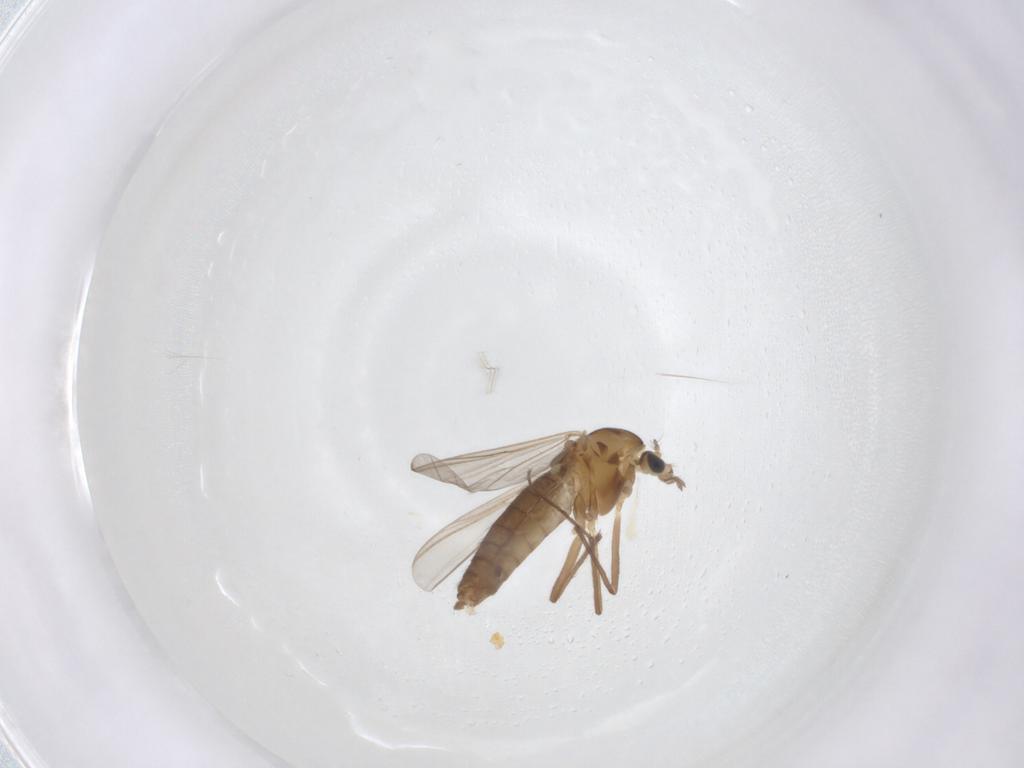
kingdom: Animalia
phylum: Arthropoda
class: Insecta
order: Diptera
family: Chironomidae
